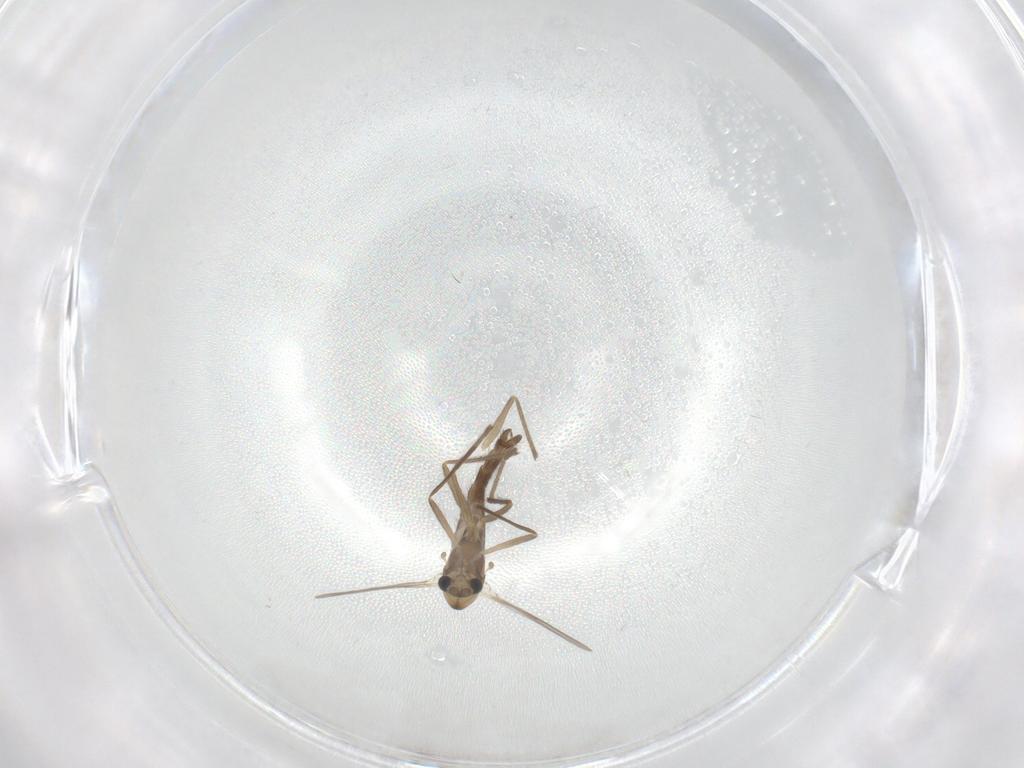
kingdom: Animalia
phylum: Arthropoda
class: Insecta
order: Diptera
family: Chironomidae
